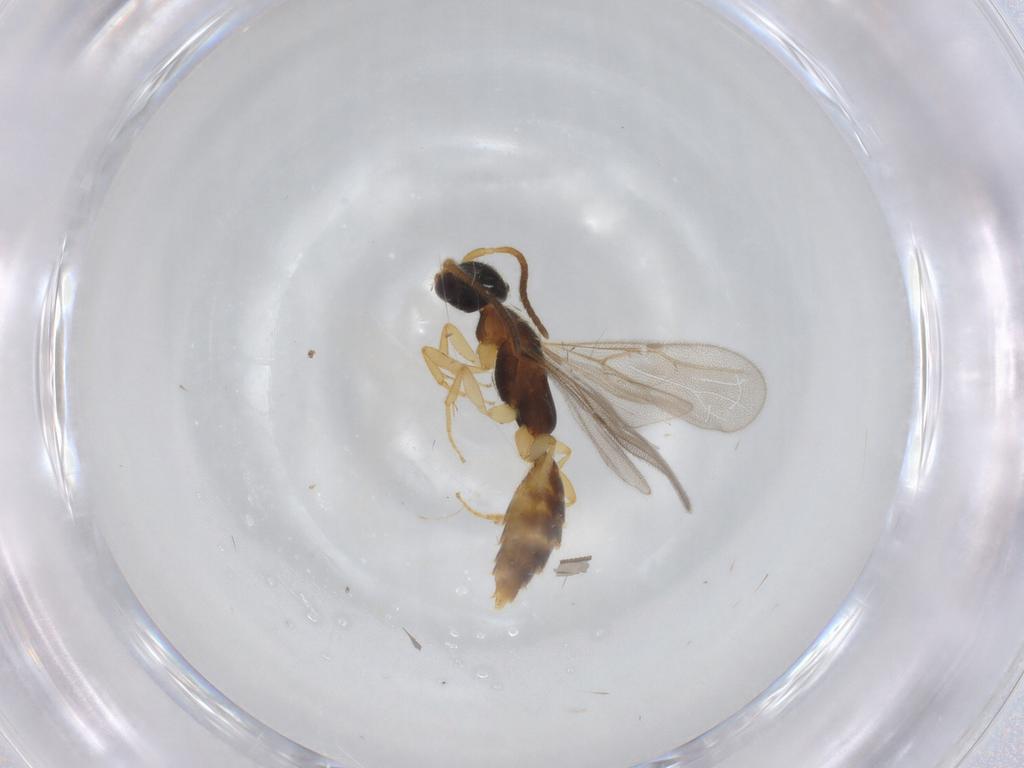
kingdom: Animalia
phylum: Arthropoda
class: Insecta
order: Hymenoptera
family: Bethylidae
